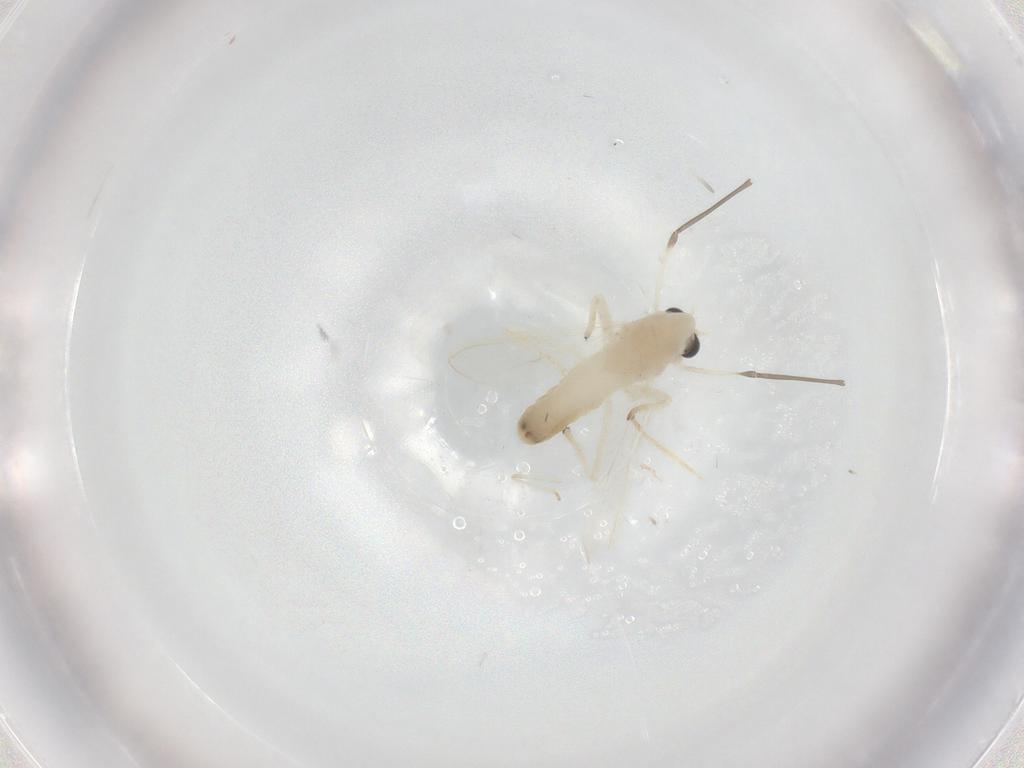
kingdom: Animalia
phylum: Arthropoda
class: Insecta
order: Diptera
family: Chironomidae
